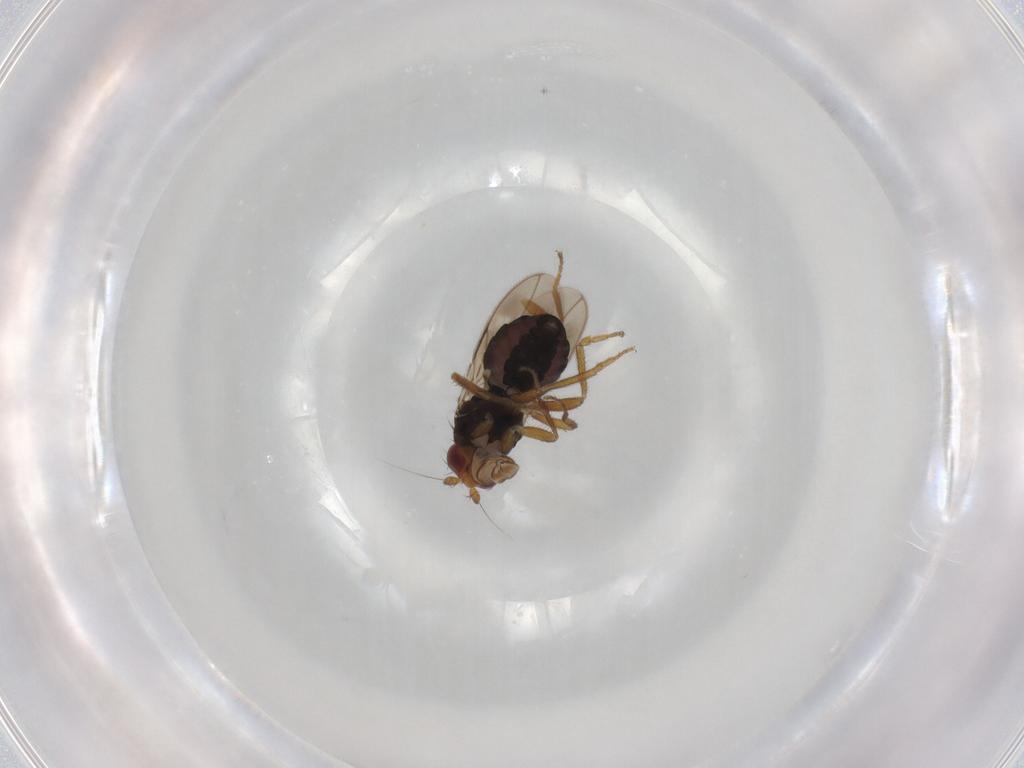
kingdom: Animalia
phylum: Arthropoda
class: Insecta
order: Diptera
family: Sphaeroceridae
